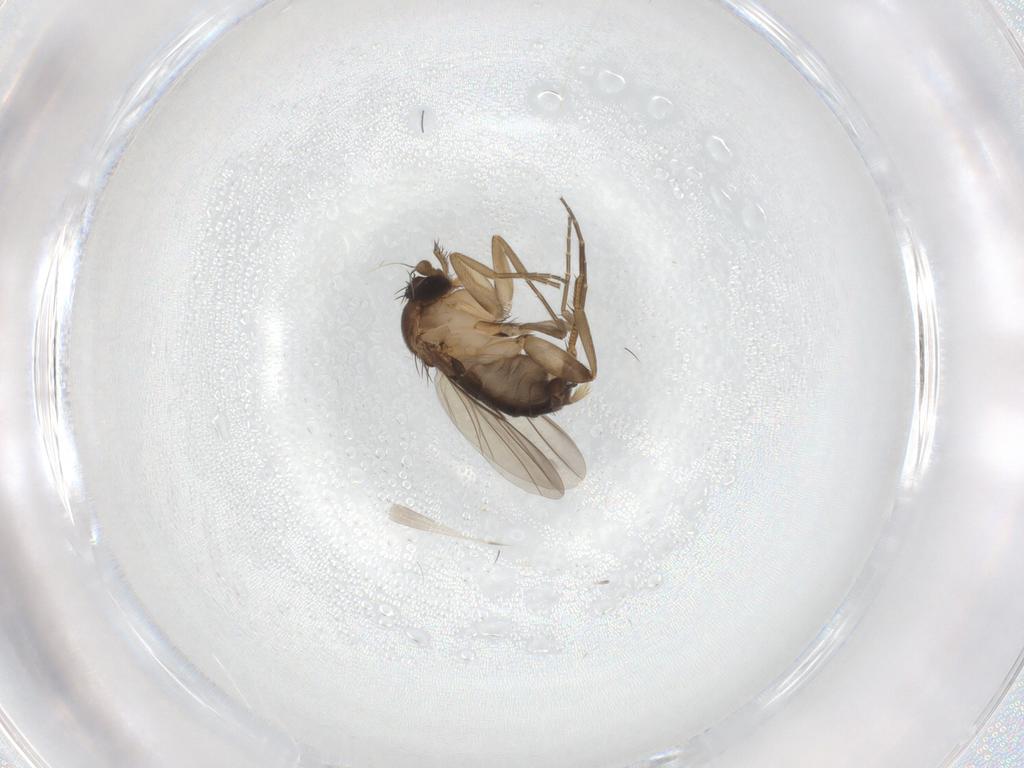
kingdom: Animalia
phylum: Arthropoda
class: Insecta
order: Diptera
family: Phoridae
